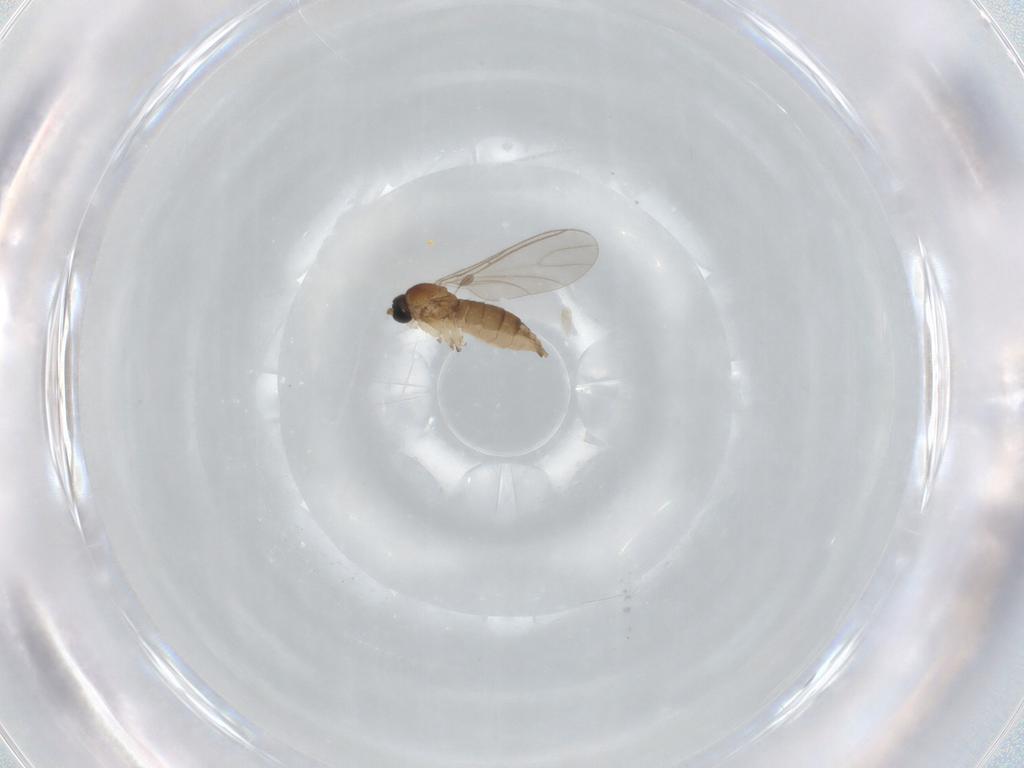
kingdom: Animalia
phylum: Arthropoda
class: Insecta
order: Diptera
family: Sciaridae
